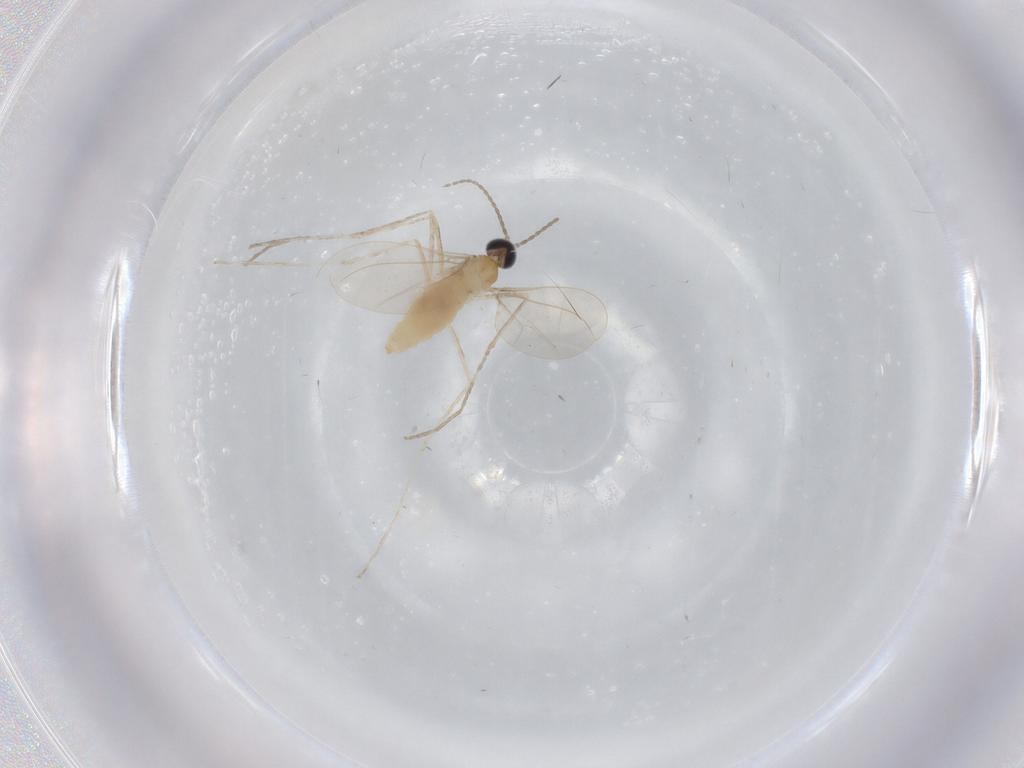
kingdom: Animalia
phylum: Arthropoda
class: Insecta
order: Diptera
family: Cecidomyiidae
